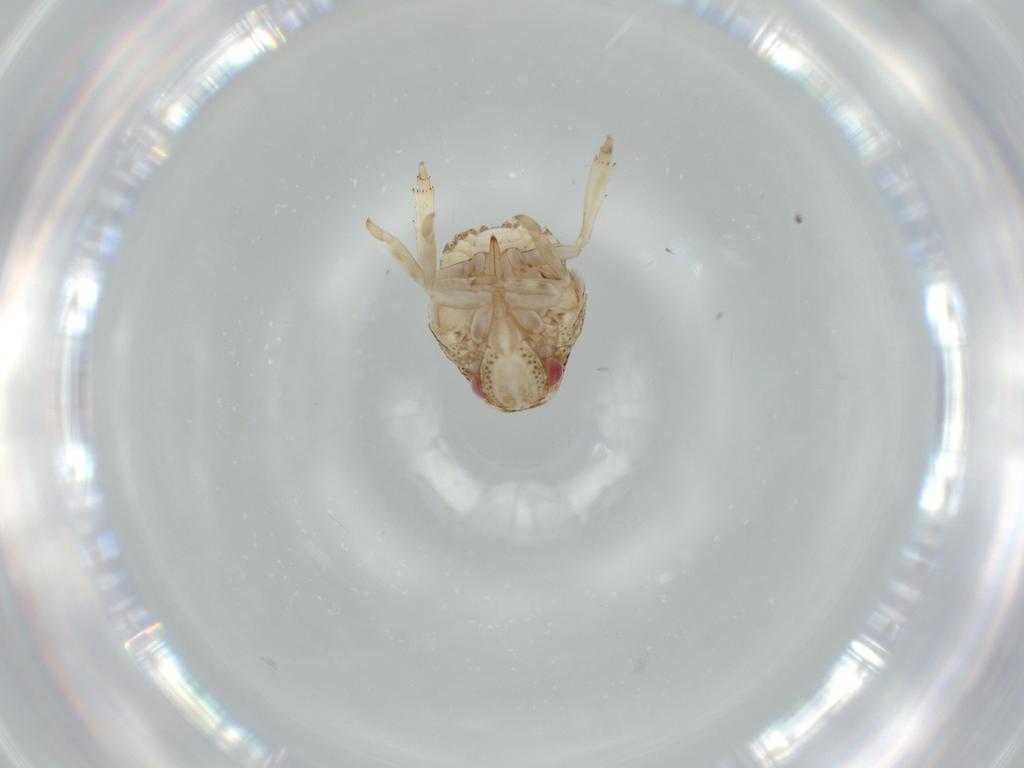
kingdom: Animalia
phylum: Arthropoda
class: Insecta
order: Hemiptera
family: Acanaloniidae
